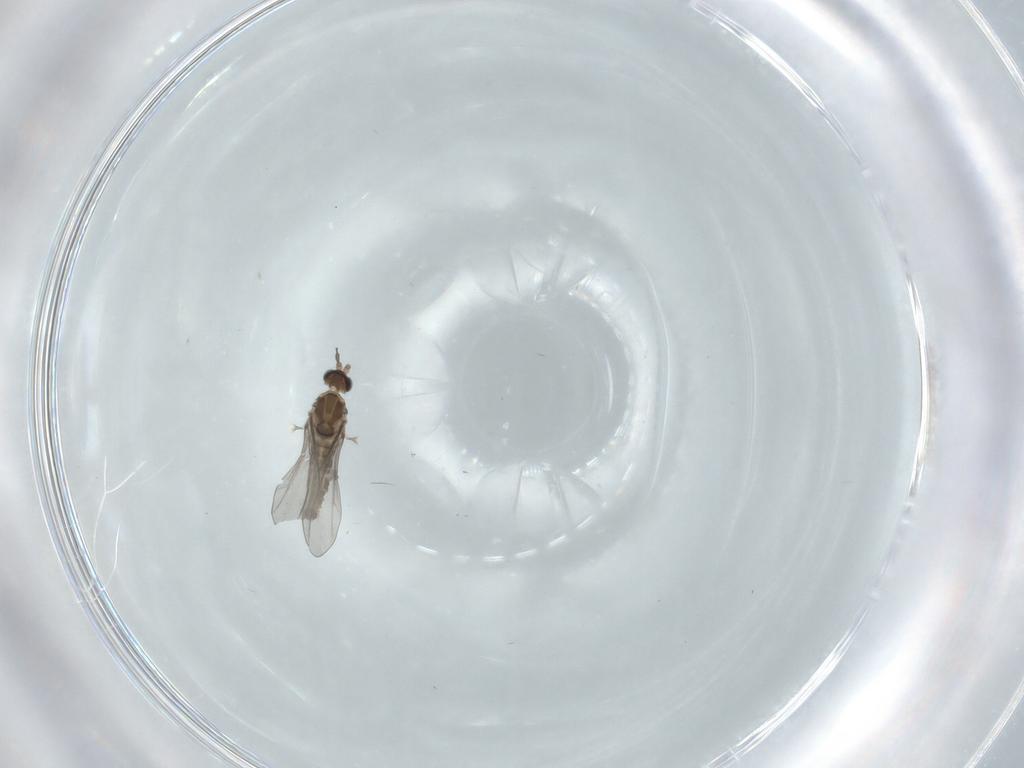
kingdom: Animalia
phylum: Arthropoda
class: Insecta
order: Diptera
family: Cecidomyiidae
